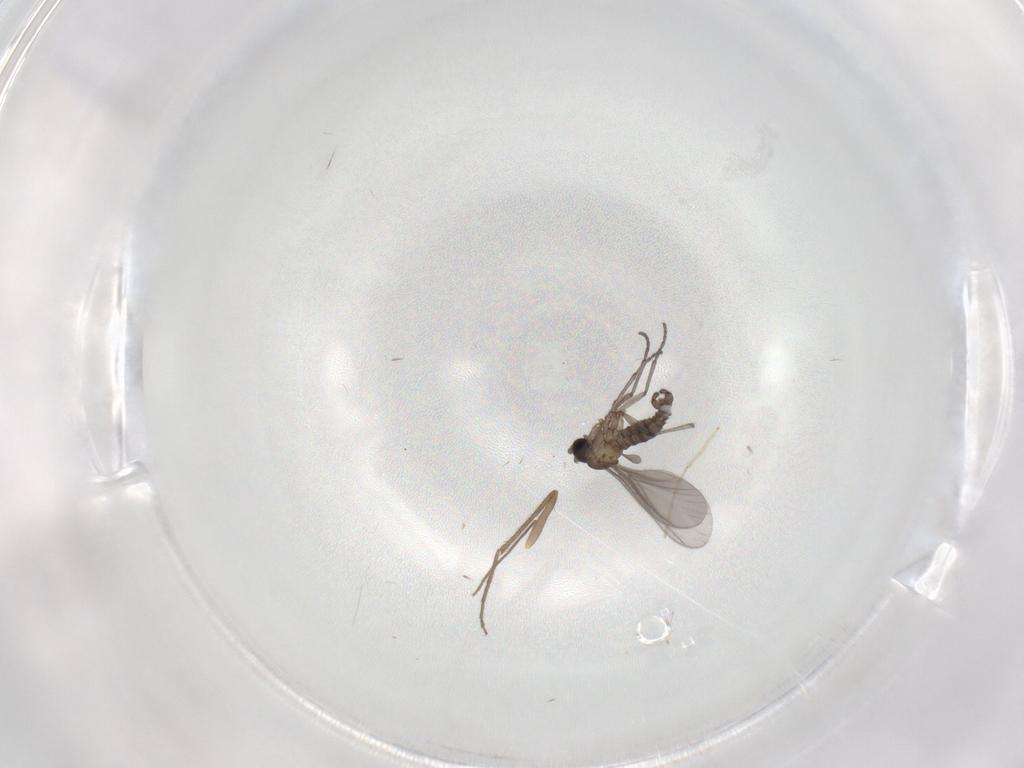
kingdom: Animalia
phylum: Arthropoda
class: Insecta
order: Diptera
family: Sciaridae
